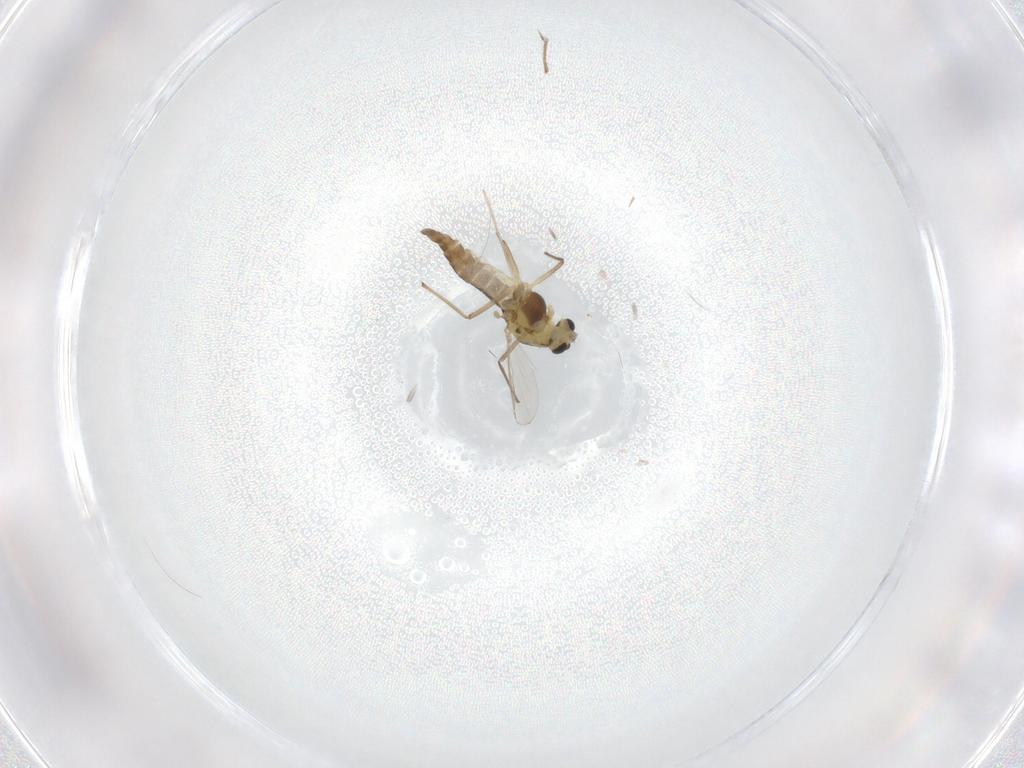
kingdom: Animalia
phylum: Arthropoda
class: Insecta
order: Diptera
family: Chironomidae
